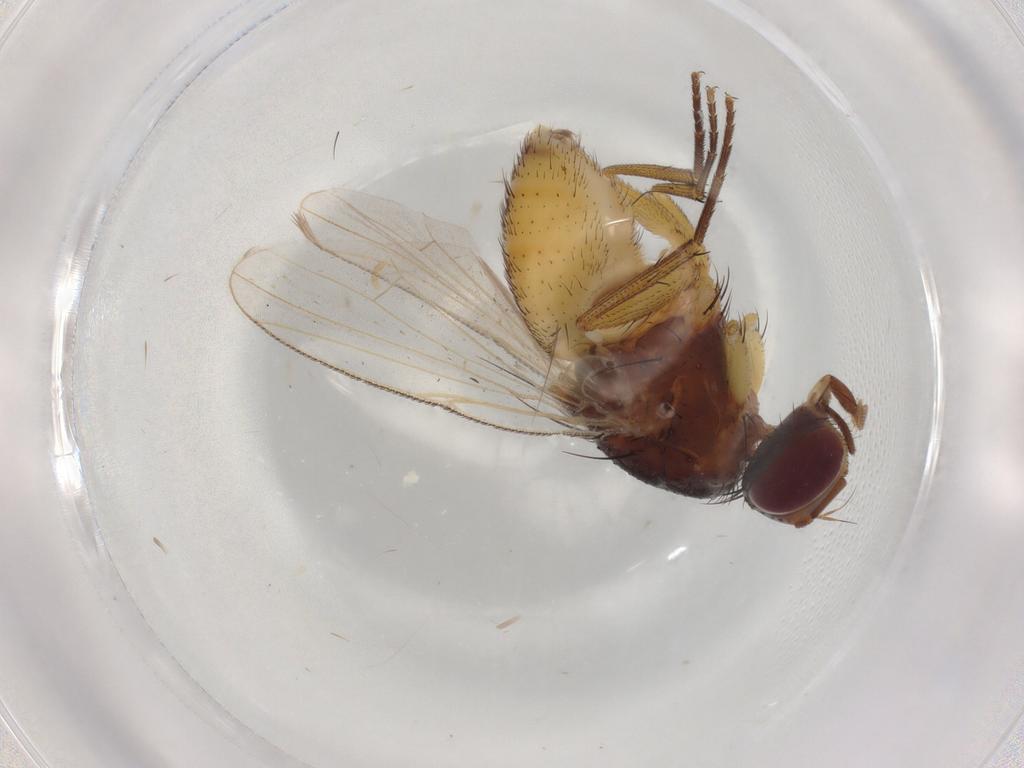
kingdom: Animalia
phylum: Arthropoda
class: Insecta
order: Diptera
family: Muscidae
